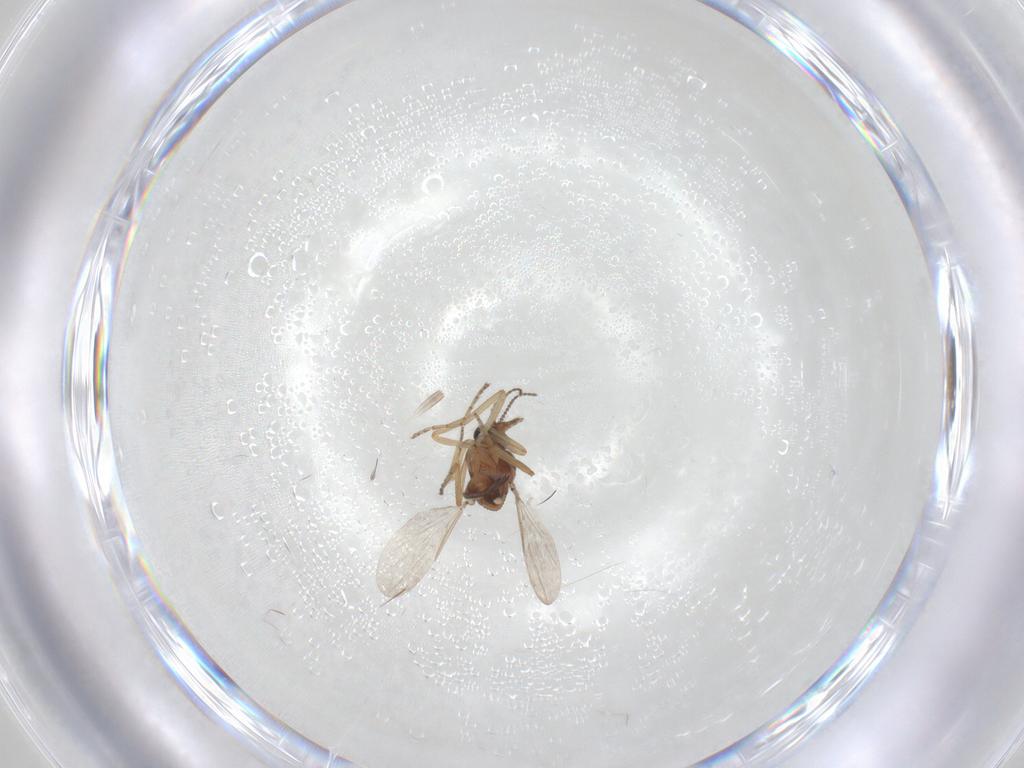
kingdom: Animalia
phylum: Arthropoda
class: Insecta
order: Diptera
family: Ceratopogonidae
